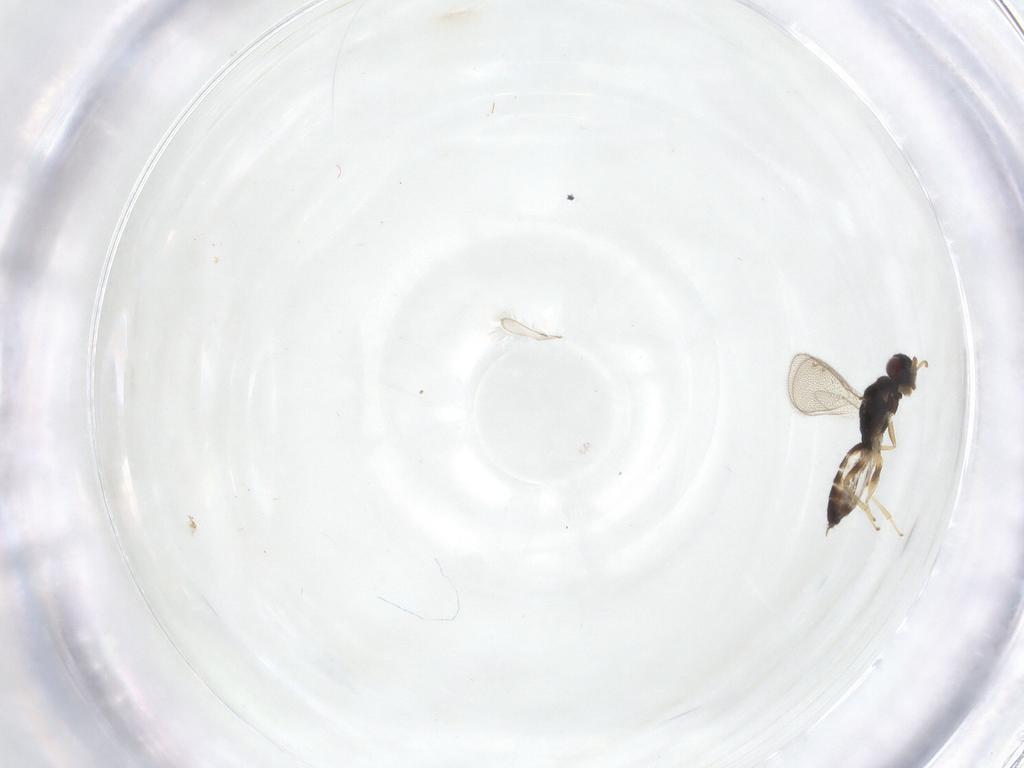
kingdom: Animalia
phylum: Arthropoda
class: Insecta
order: Hymenoptera
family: Eulophidae
